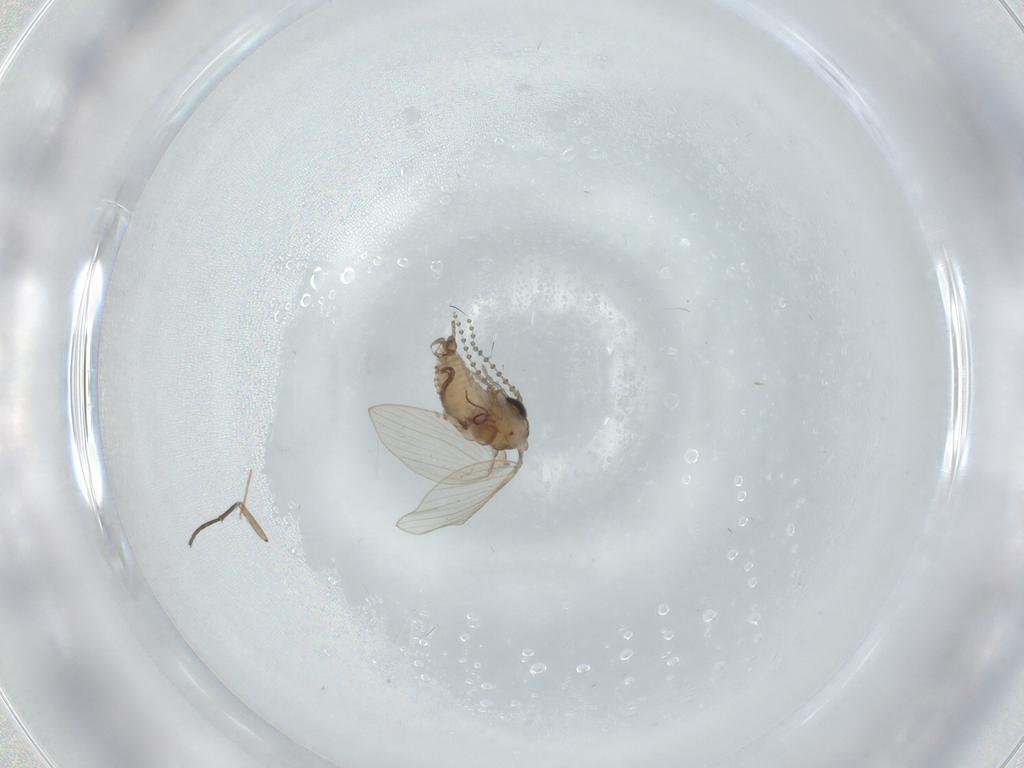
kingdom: Animalia
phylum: Arthropoda
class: Insecta
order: Diptera
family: Psychodidae
